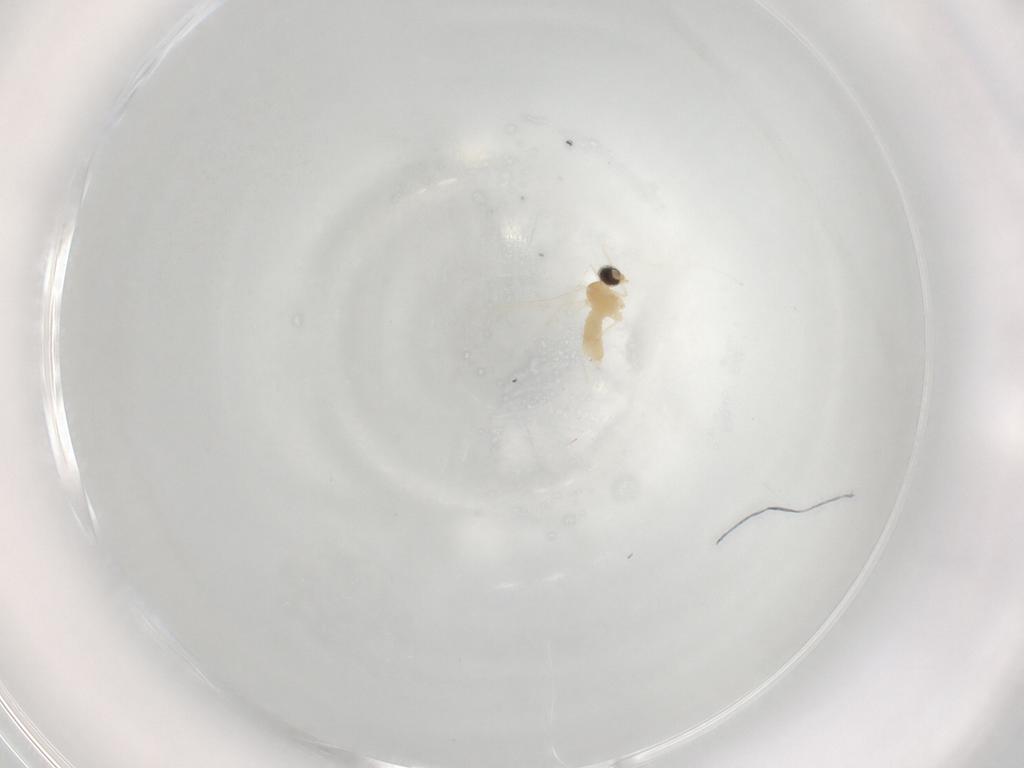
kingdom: Animalia
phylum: Arthropoda
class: Insecta
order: Diptera
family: Cecidomyiidae
